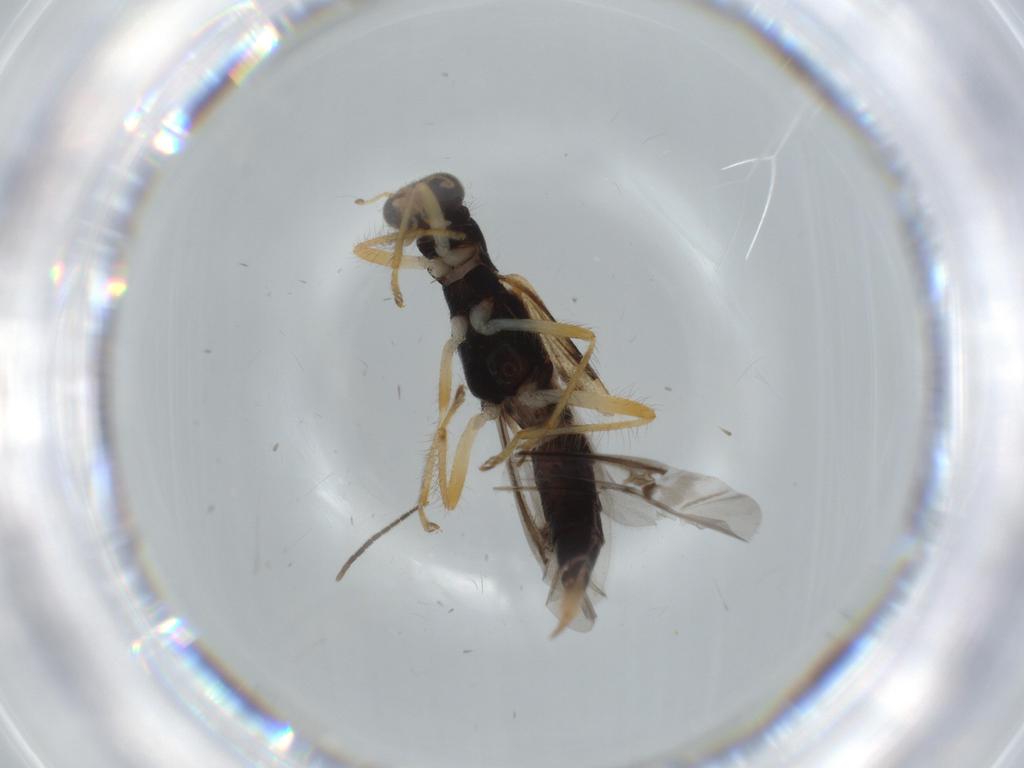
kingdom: Animalia
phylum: Arthropoda
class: Insecta
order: Coleoptera
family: Cleridae
